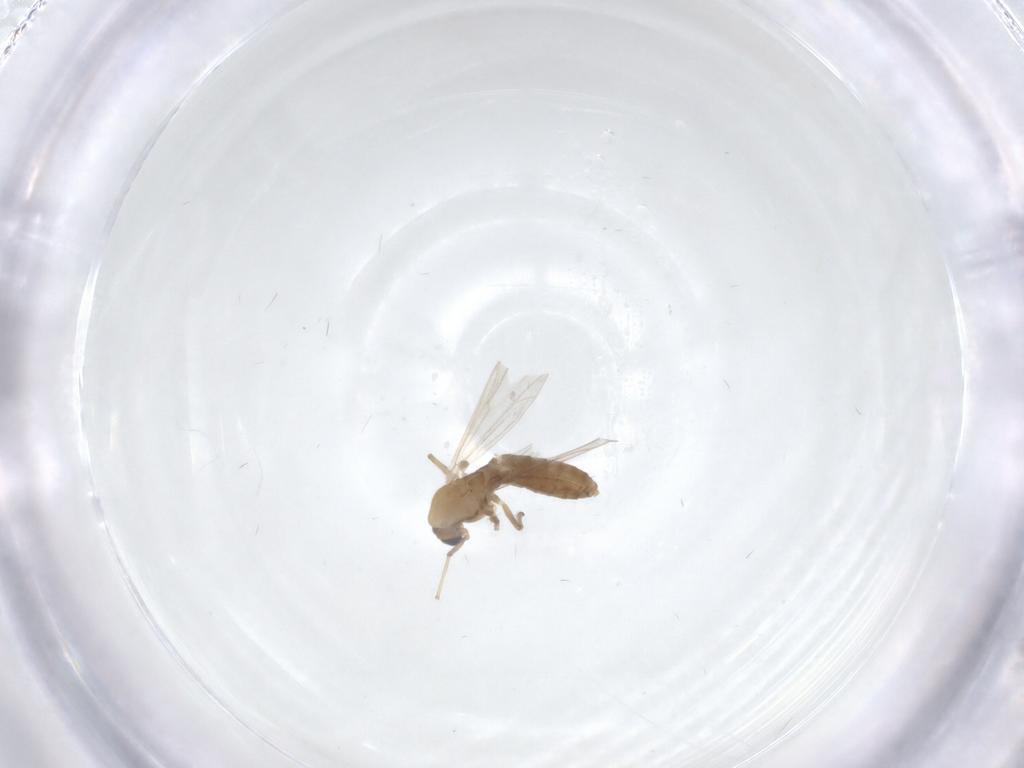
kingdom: Animalia
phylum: Arthropoda
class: Insecta
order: Diptera
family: Chironomidae
